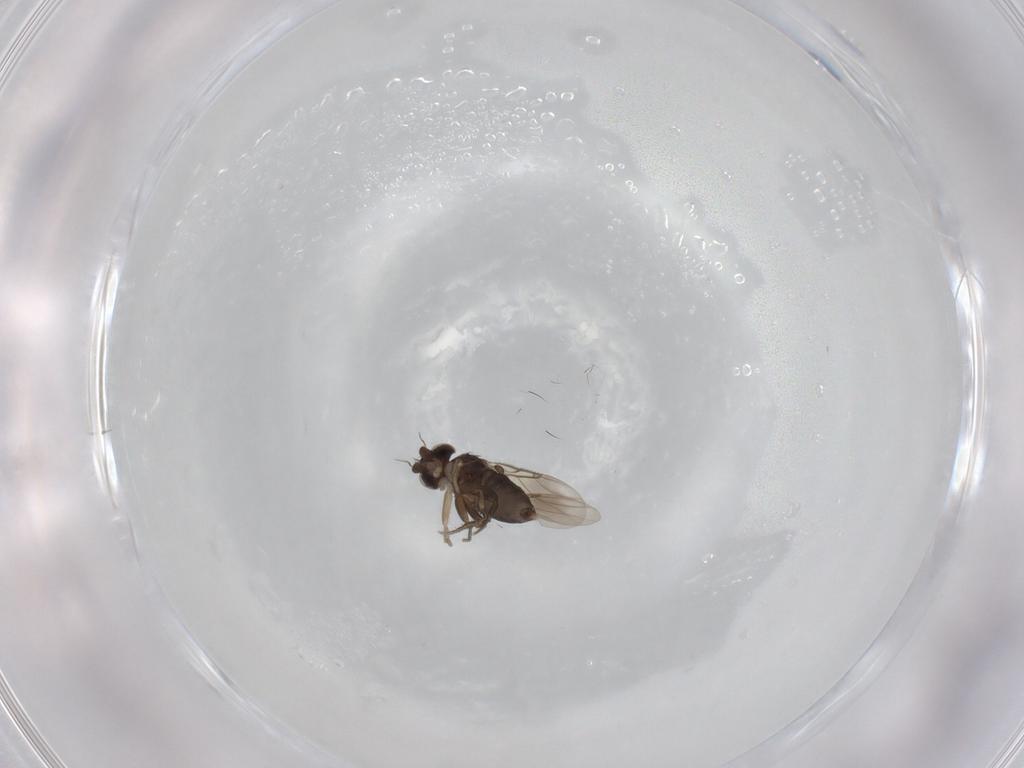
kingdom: Animalia
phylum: Arthropoda
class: Insecta
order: Diptera
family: Phoridae
